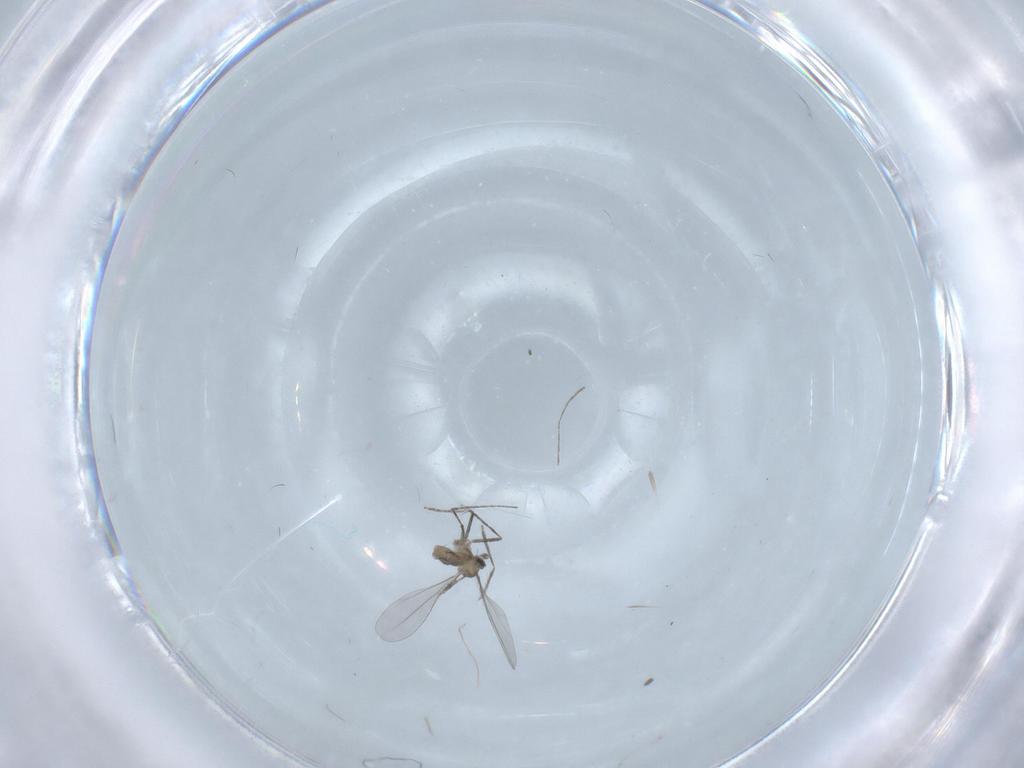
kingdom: Animalia
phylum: Arthropoda
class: Insecta
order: Diptera
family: Cecidomyiidae
